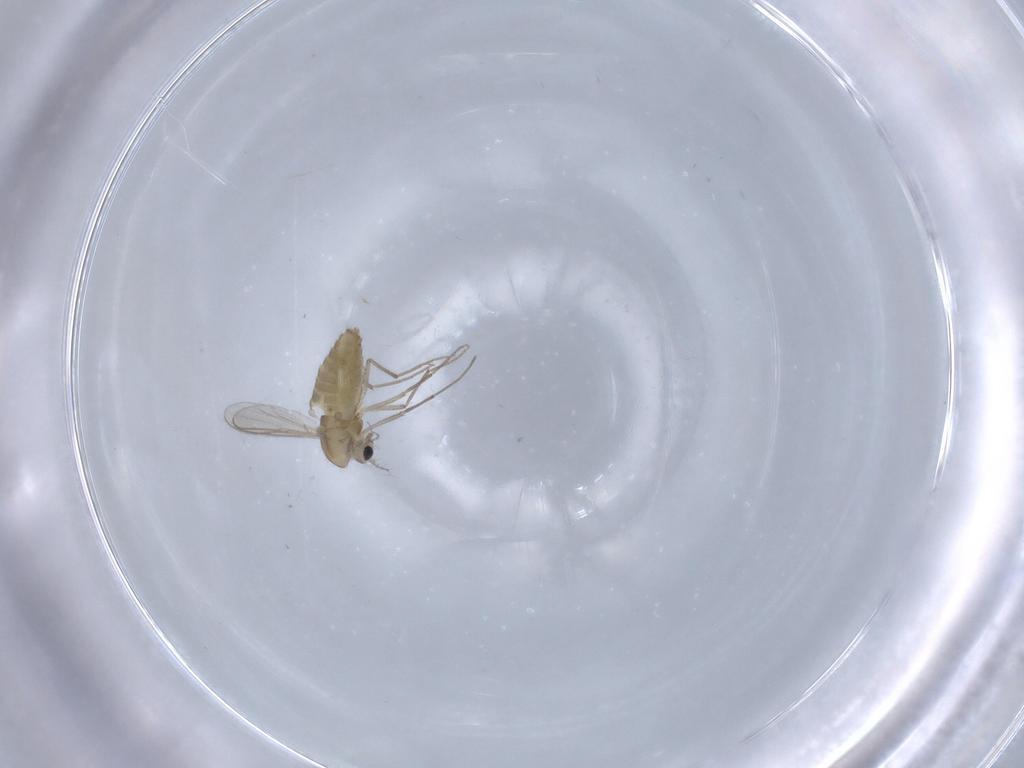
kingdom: Animalia
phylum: Arthropoda
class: Insecta
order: Diptera
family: Chironomidae
